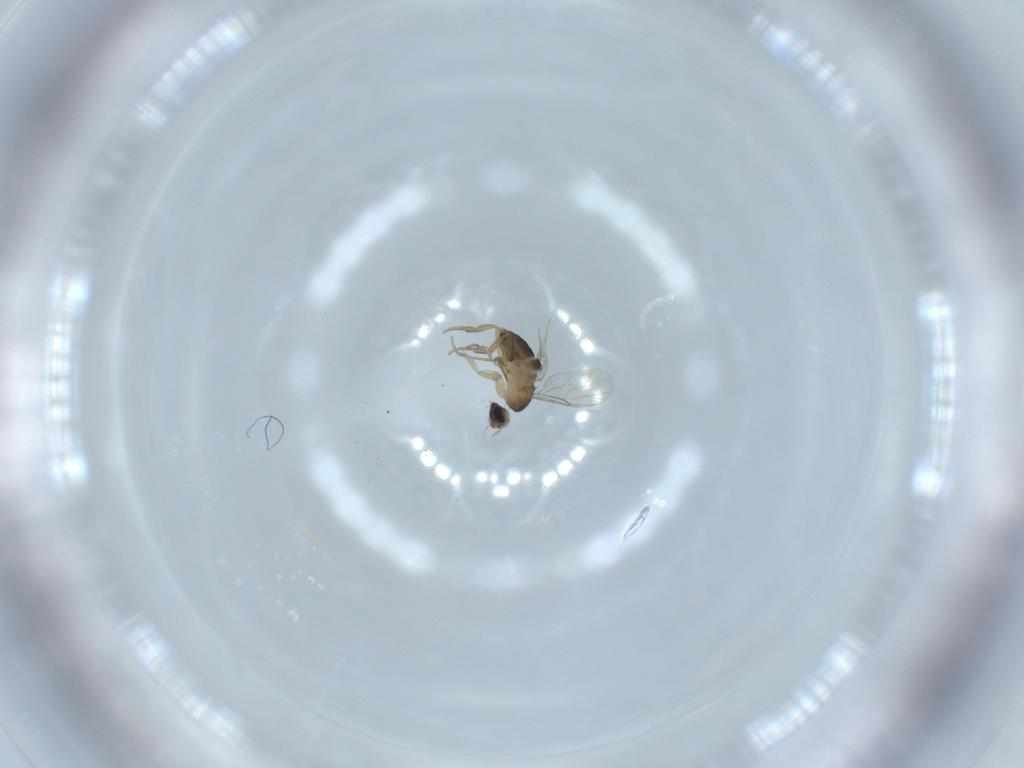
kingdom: Animalia
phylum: Arthropoda
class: Insecta
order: Diptera
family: Phoridae
